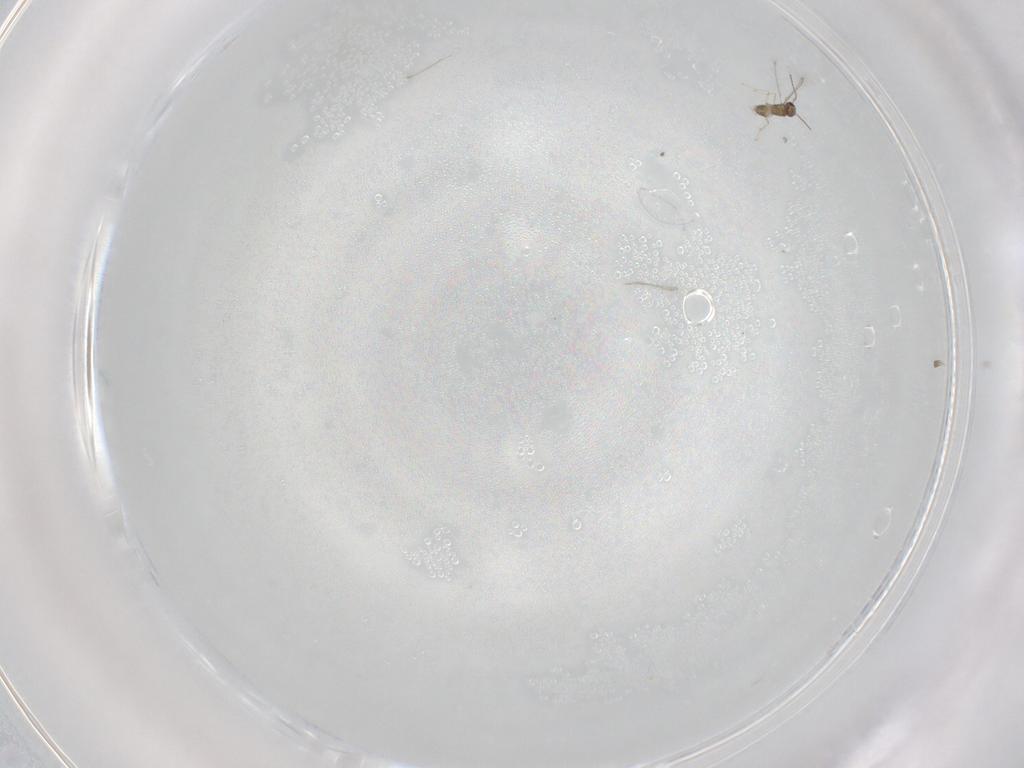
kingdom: Animalia
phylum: Arthropoda
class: Insecta
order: Hymenoptera
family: Mymaridae
